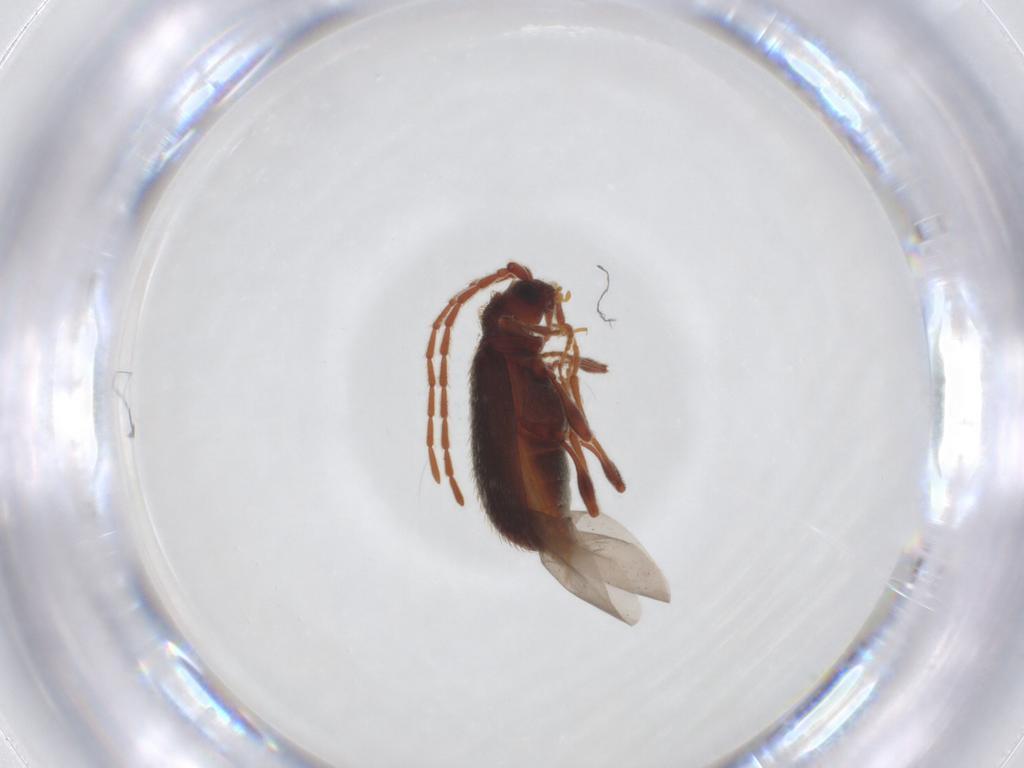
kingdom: Animalia
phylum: Arthropoda
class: Insecta
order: Coleoptera
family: Ptinidae
